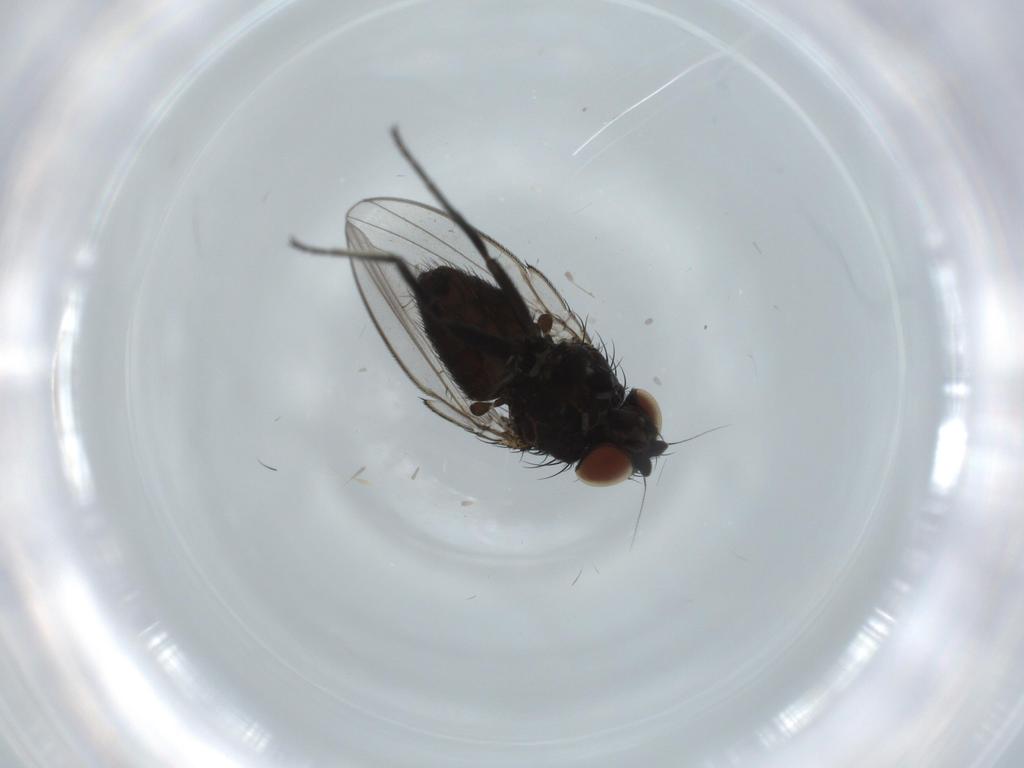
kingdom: Animalia
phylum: Arthropoda
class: Insecta
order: Diptera
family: Milichiidae
